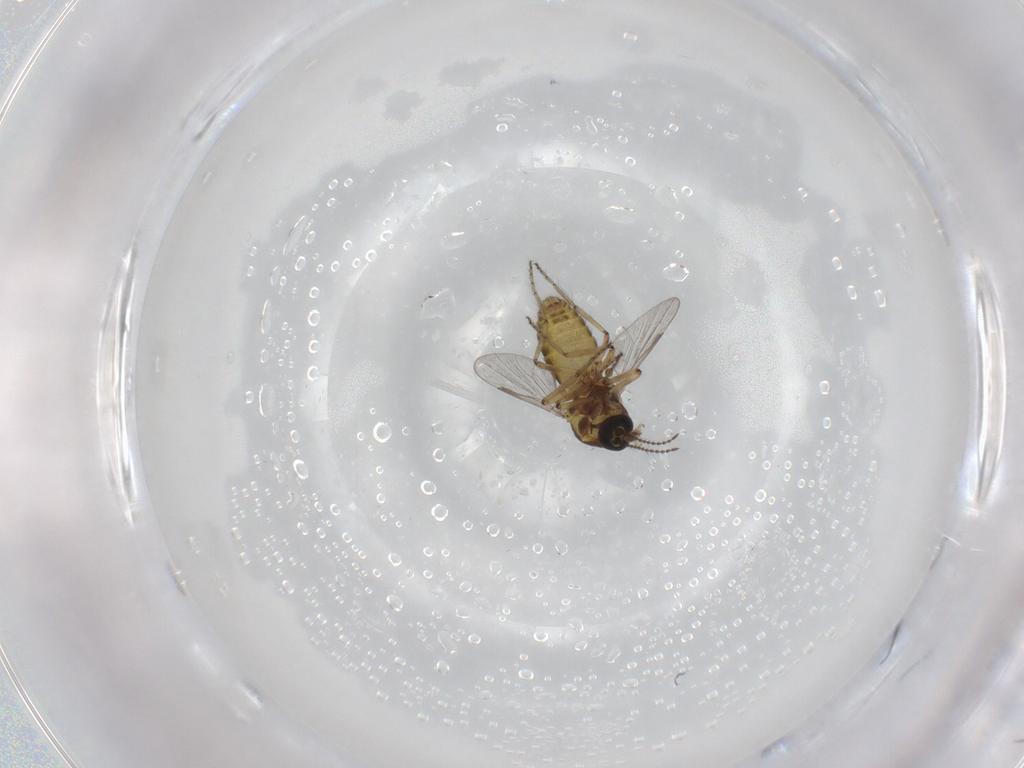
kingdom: Animalia
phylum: Arthropoda
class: Insecta
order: Diptera
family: Ceratopogonidae
